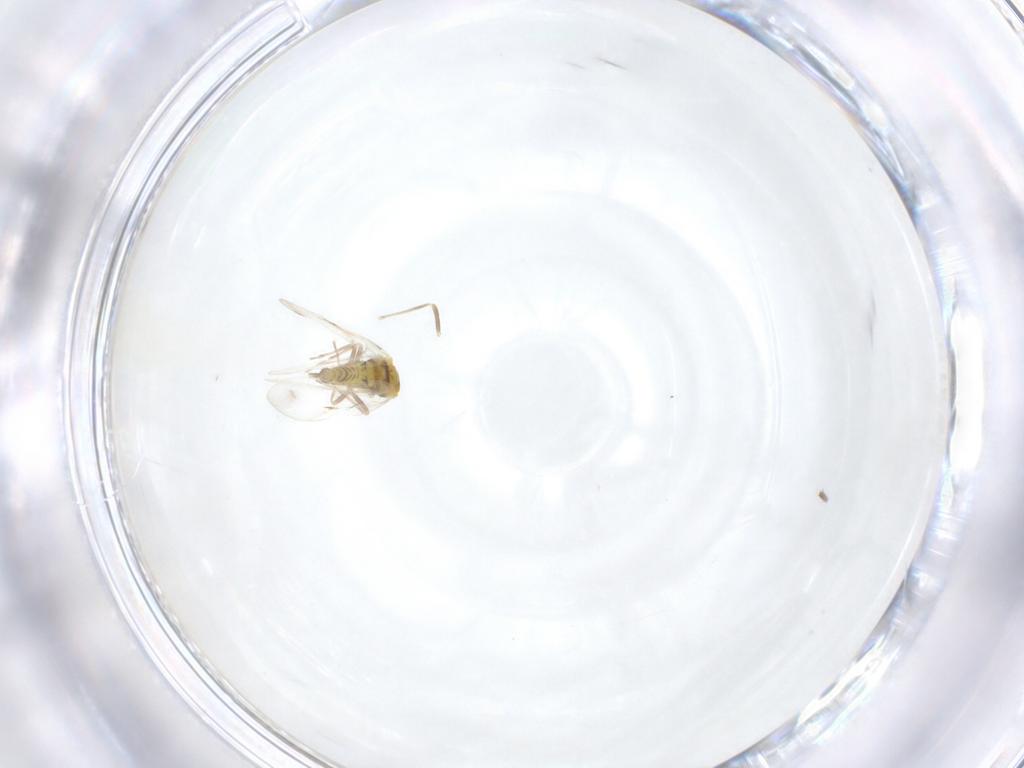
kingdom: Animalia
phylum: Arthropoda
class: Insecta
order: Hemiptera
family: Aleyrodidae
